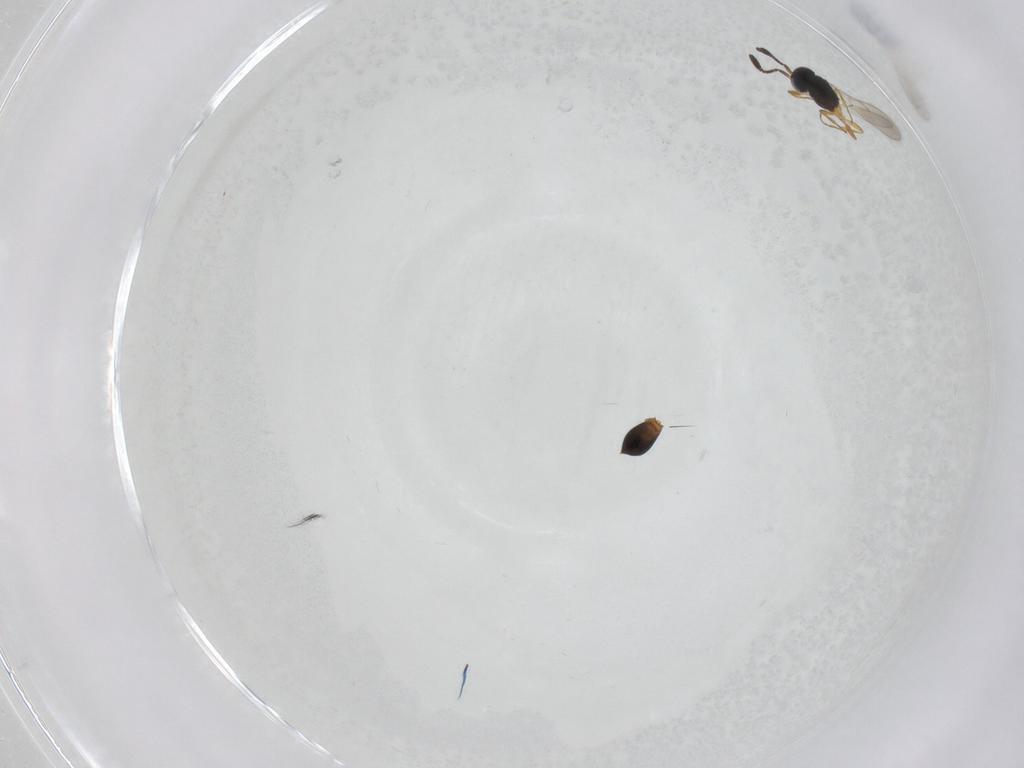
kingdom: Animalia
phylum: Arthropoda
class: Insecta
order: Hymenoptera
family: Scelionidae
